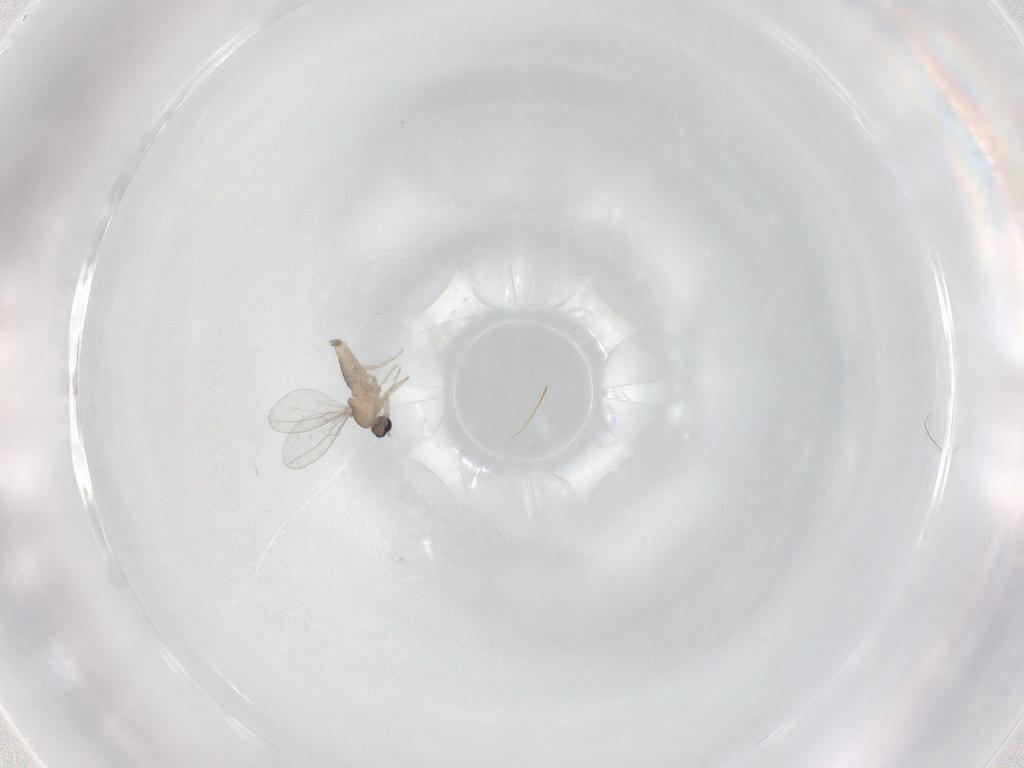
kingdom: Animalia
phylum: Arthropoda
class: Insecta
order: Diptera
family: Cecidomyiidae
